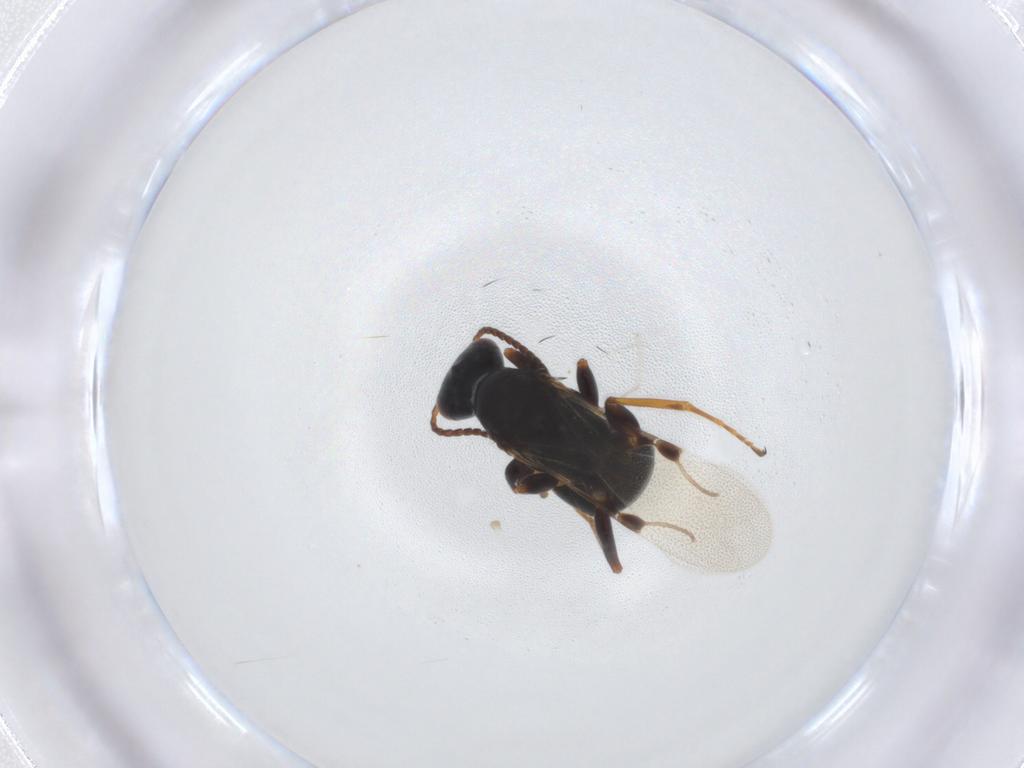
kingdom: Animalia
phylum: Arthropoda
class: Insecta
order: Hymenoptera
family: Bethylidae
